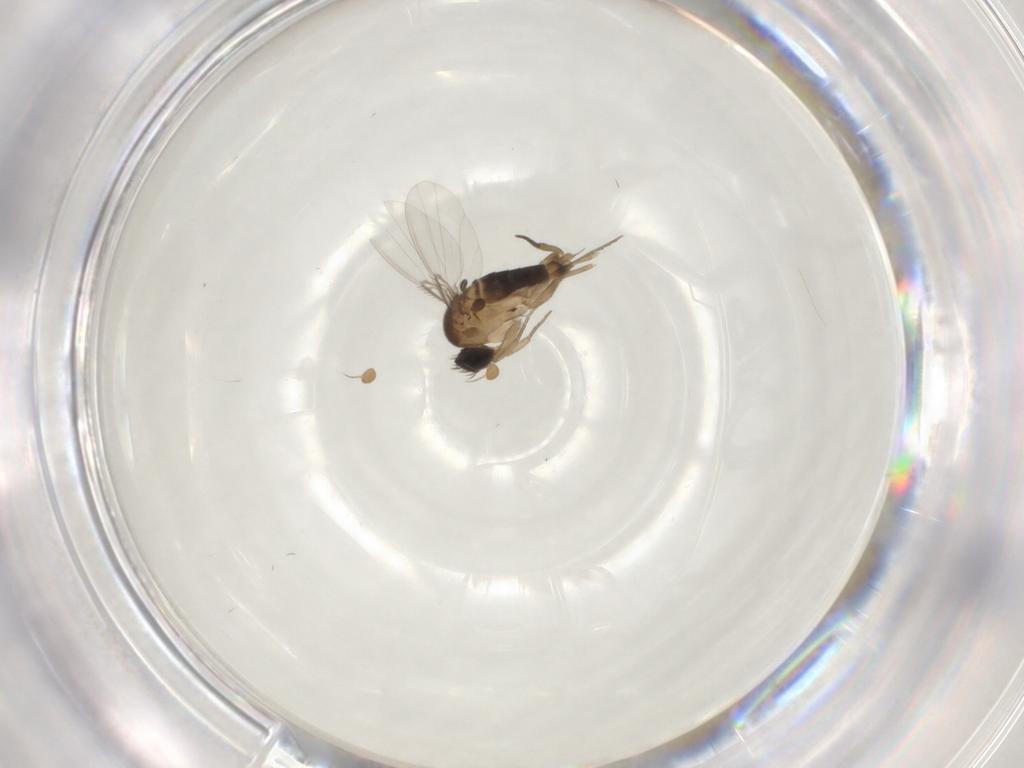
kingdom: Animalia
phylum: Arthropoda
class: Insecta
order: Diptera
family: Phoridae
